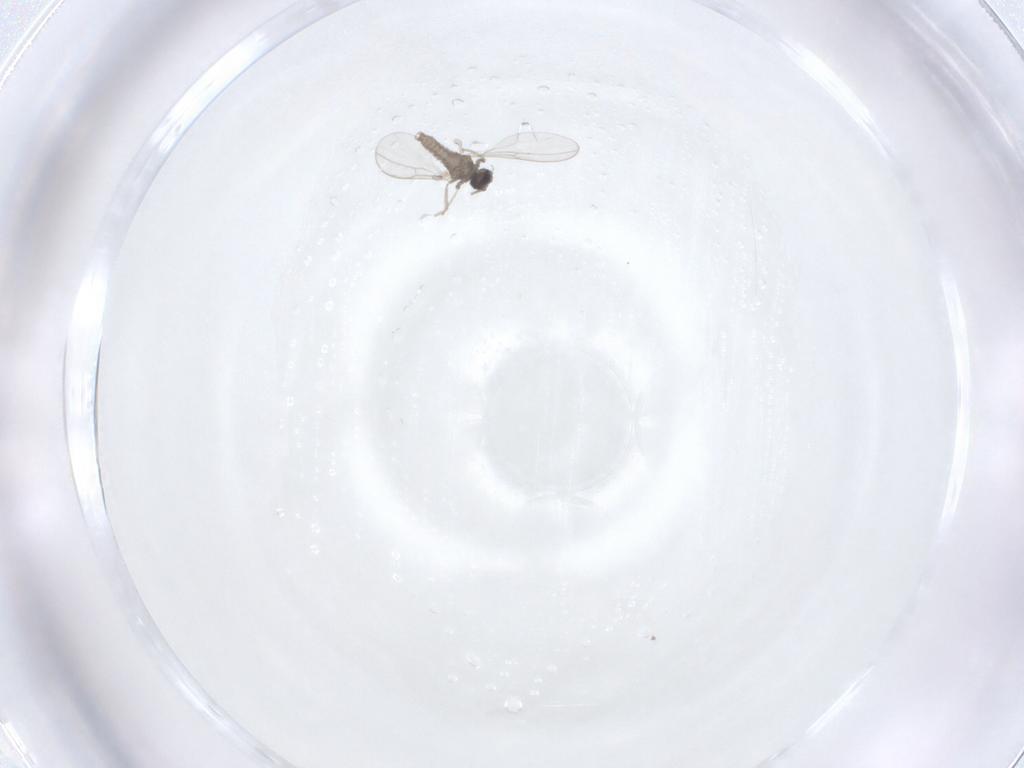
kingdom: Animalia
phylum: Arthropoda
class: Insecta
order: Diptera
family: Cecidomyiidae
